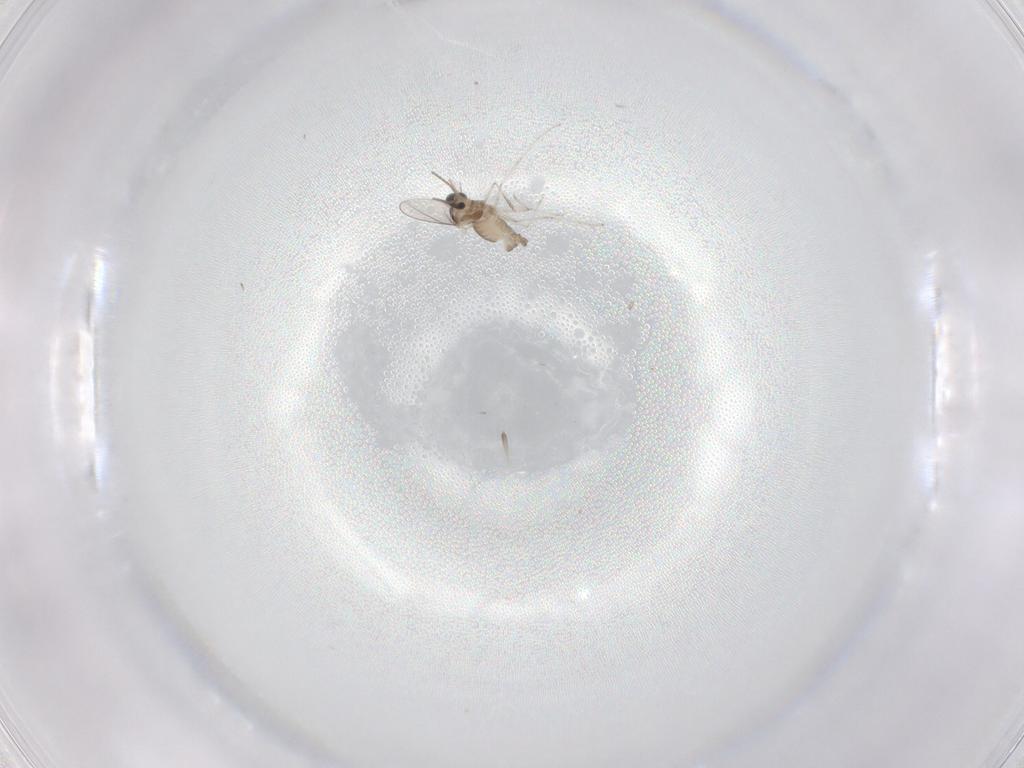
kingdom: Animalia
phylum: Arthropoda
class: Insecta
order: Diptera
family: Cecidomyiidae
